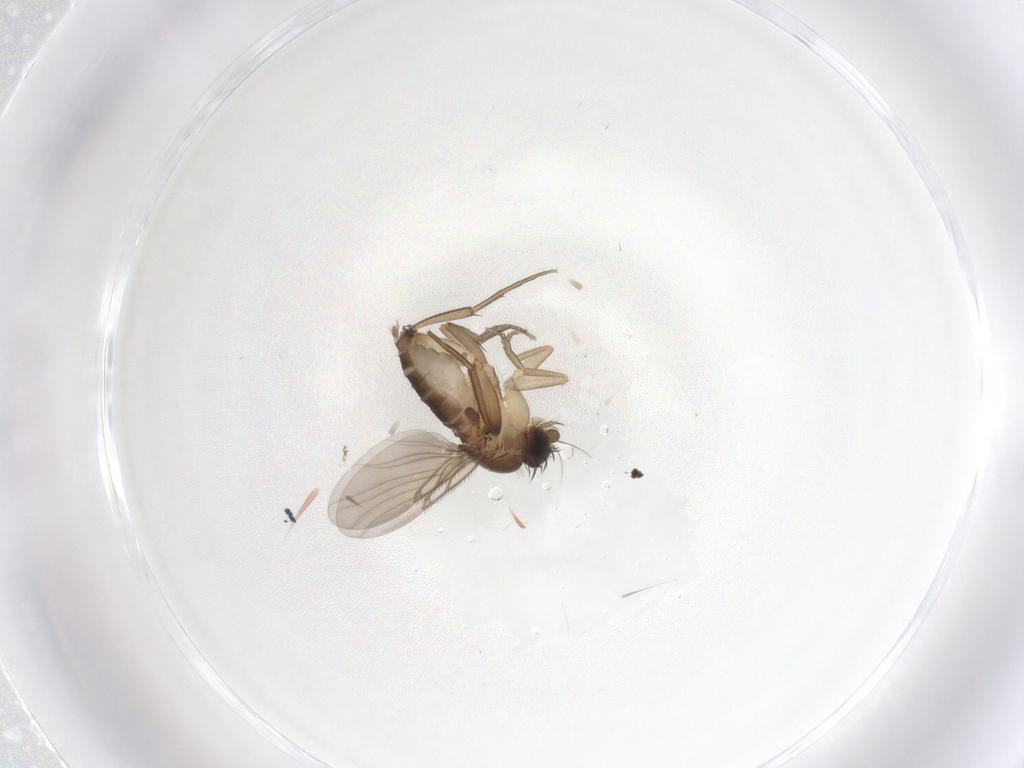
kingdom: Animalia
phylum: Arthropoda
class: Insecta
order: Diptera
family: Phoridae
